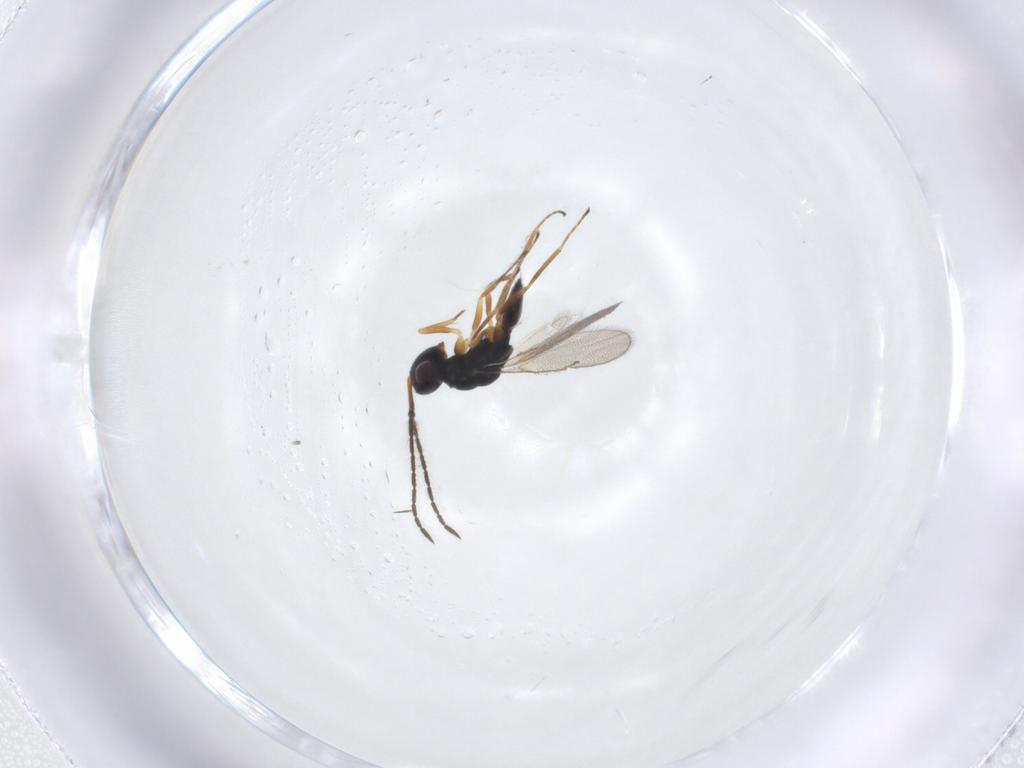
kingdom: Animalia
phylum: Arthropoda
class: Insecta
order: Hymenoptera
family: Pteromalidae
